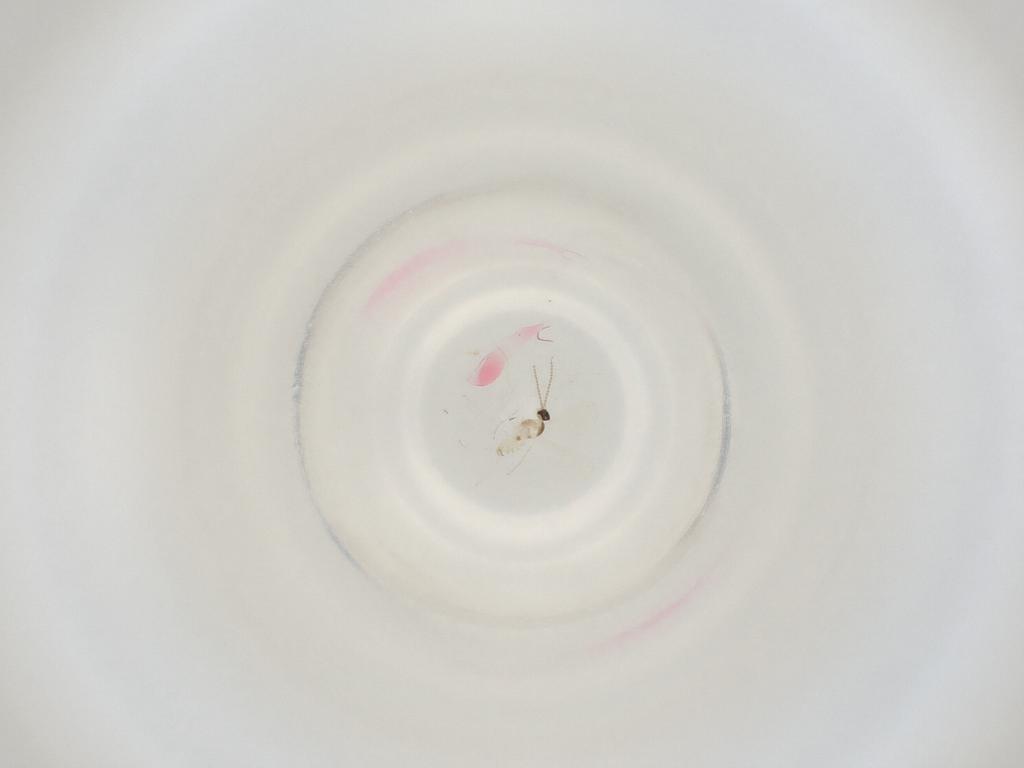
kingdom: Animalia
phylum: Arthropoda
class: Insecta
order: Diptera
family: Cecidomyiidae
